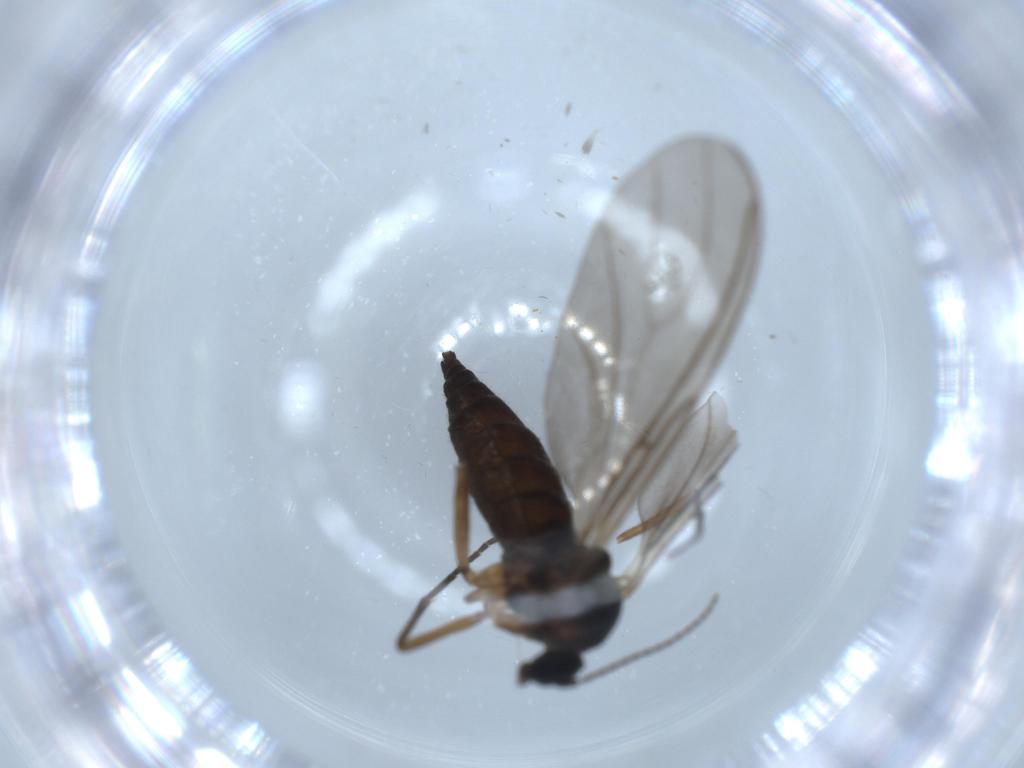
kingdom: Animalia
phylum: Arthropoda
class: Insecta
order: Diptera
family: Sciaridae
